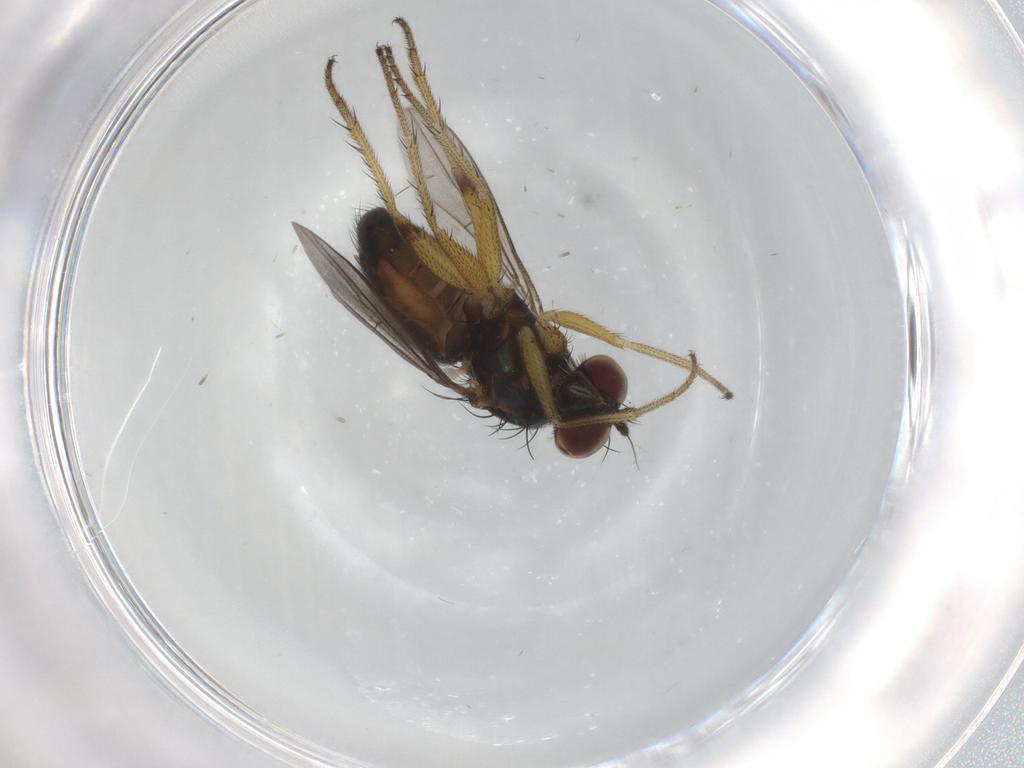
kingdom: Animalia
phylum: Arthropoda
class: Insecta
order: Diptera
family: Dolichopodidae
